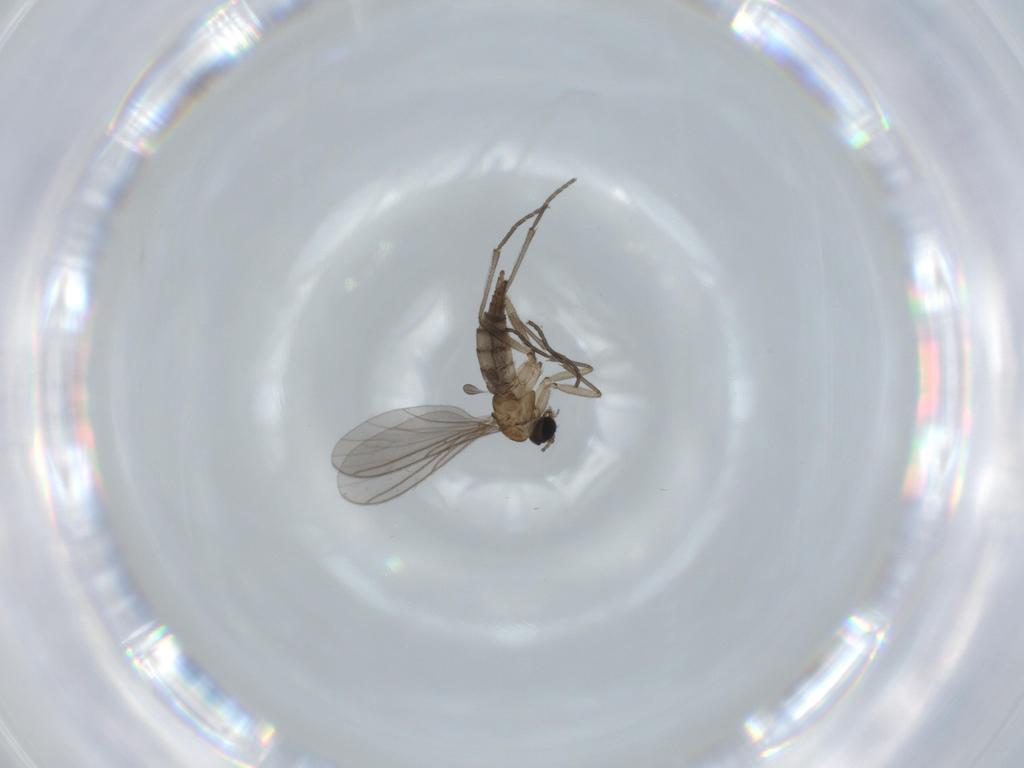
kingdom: Animalia
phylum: Arthropoda
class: Insecta
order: Diptera
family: Sciaridae
